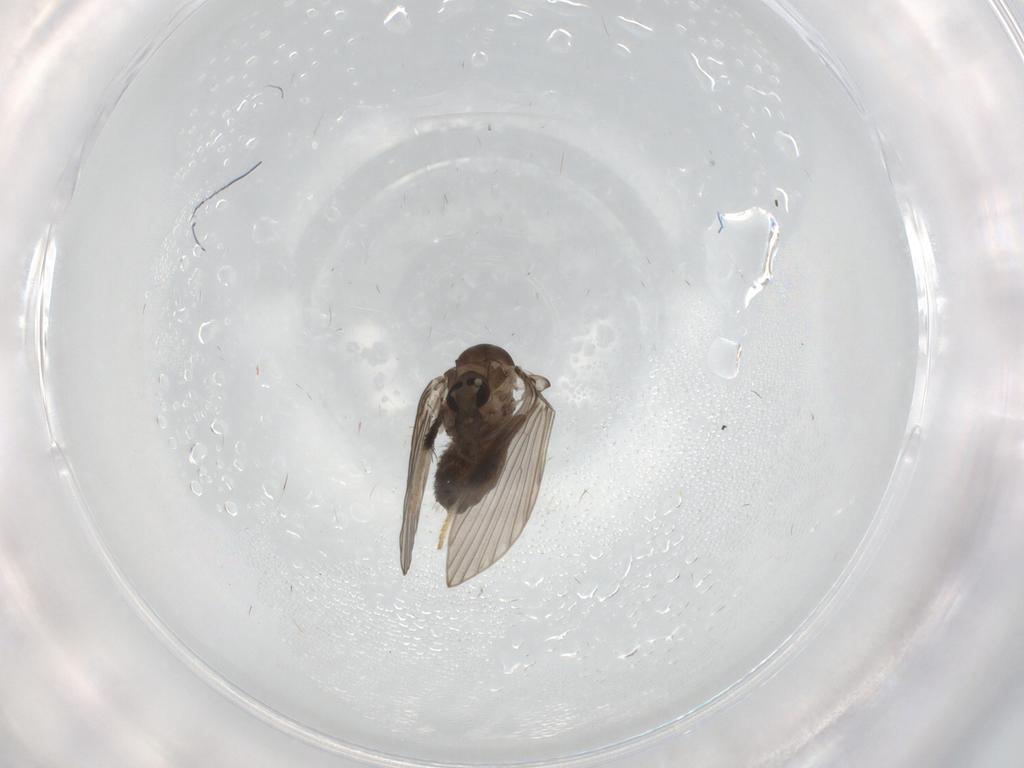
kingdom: Animalia
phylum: Arthropoda
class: Insecta
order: Diptera
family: Psychodidae
